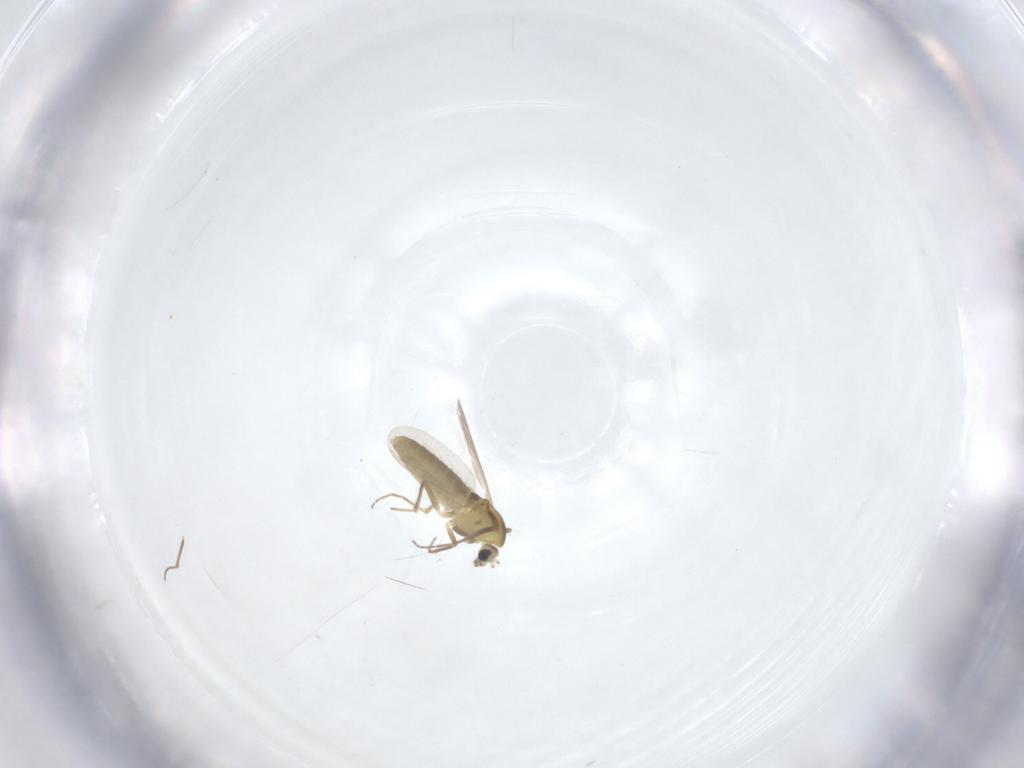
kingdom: Animalia
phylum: Arthropoda
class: Insecta
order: Diptera
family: Chironomidae
